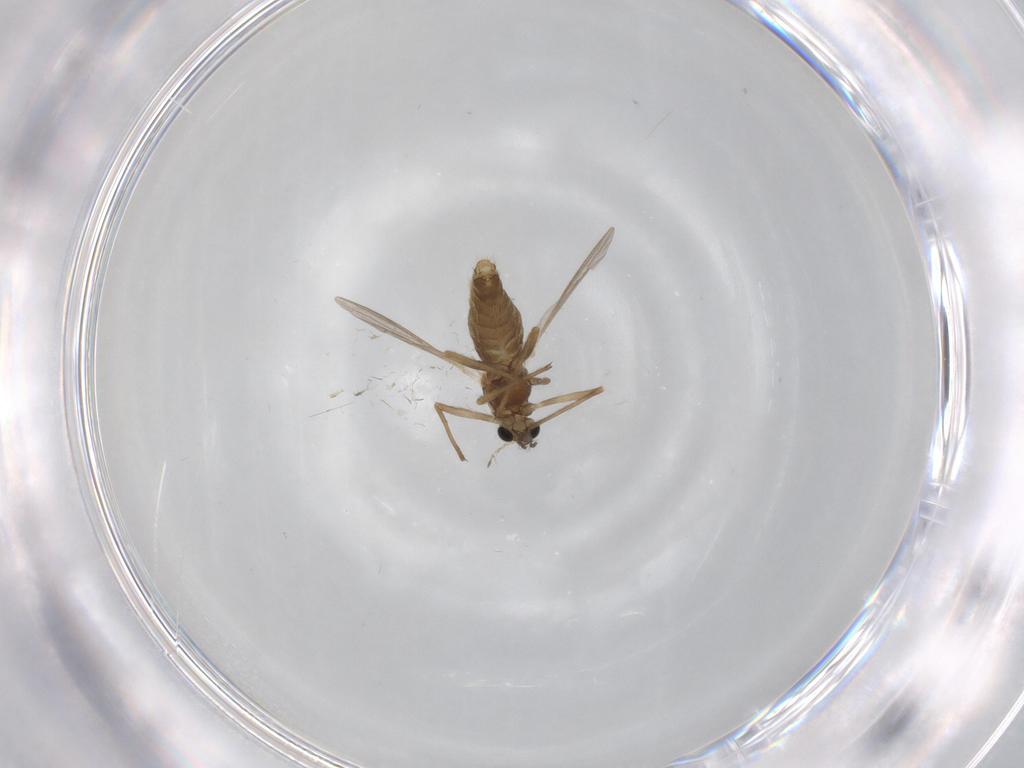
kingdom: Animalia
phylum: Arthropoda
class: Insecta
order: Diptera
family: Chironomidae
